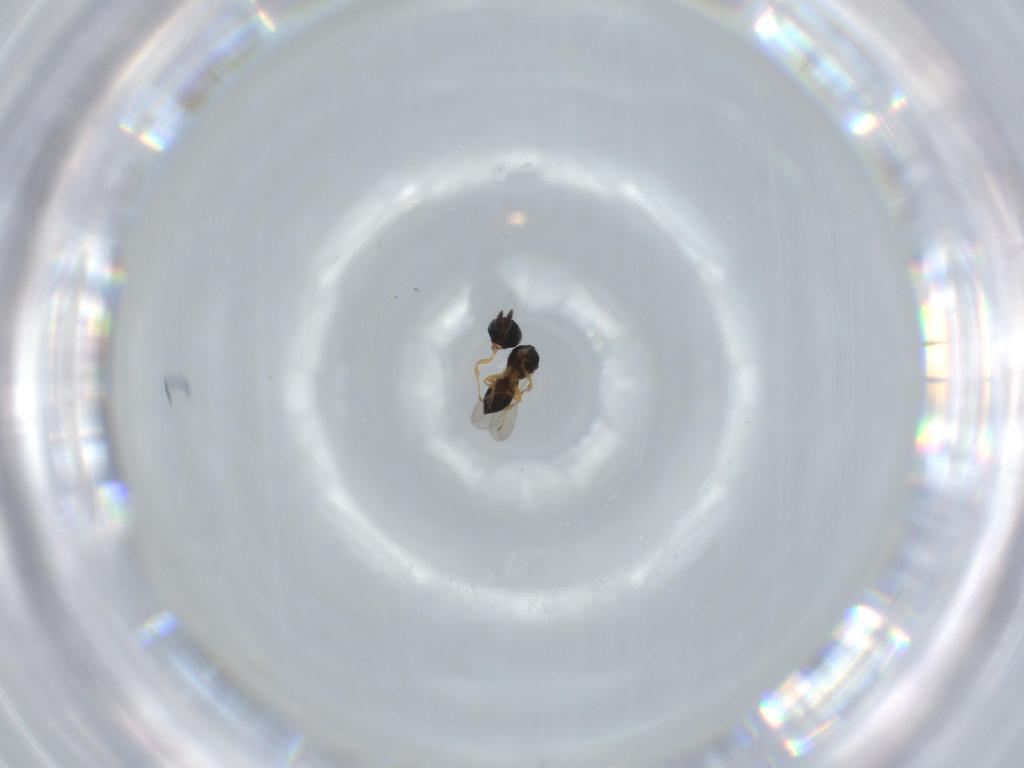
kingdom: Animalia
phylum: Arthropoda
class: Insecta
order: Hymenoptera
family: Scelionidae
